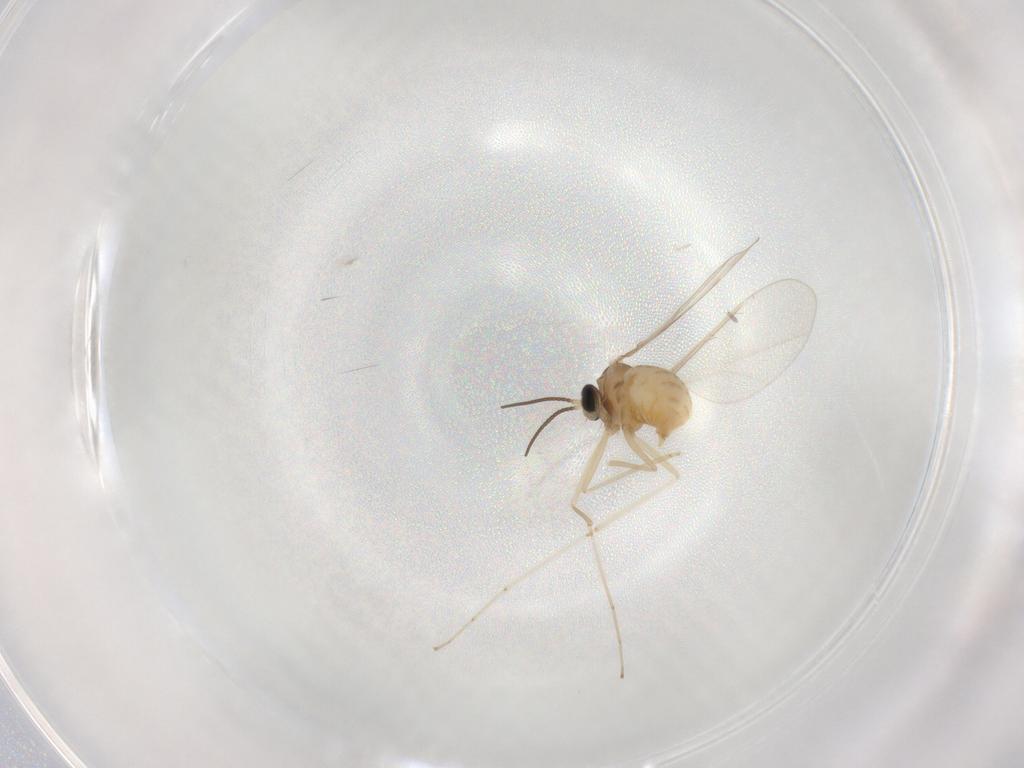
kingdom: Animalia
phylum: Arthropoda
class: Insecta
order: Diptera
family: Cecidomyiidae
